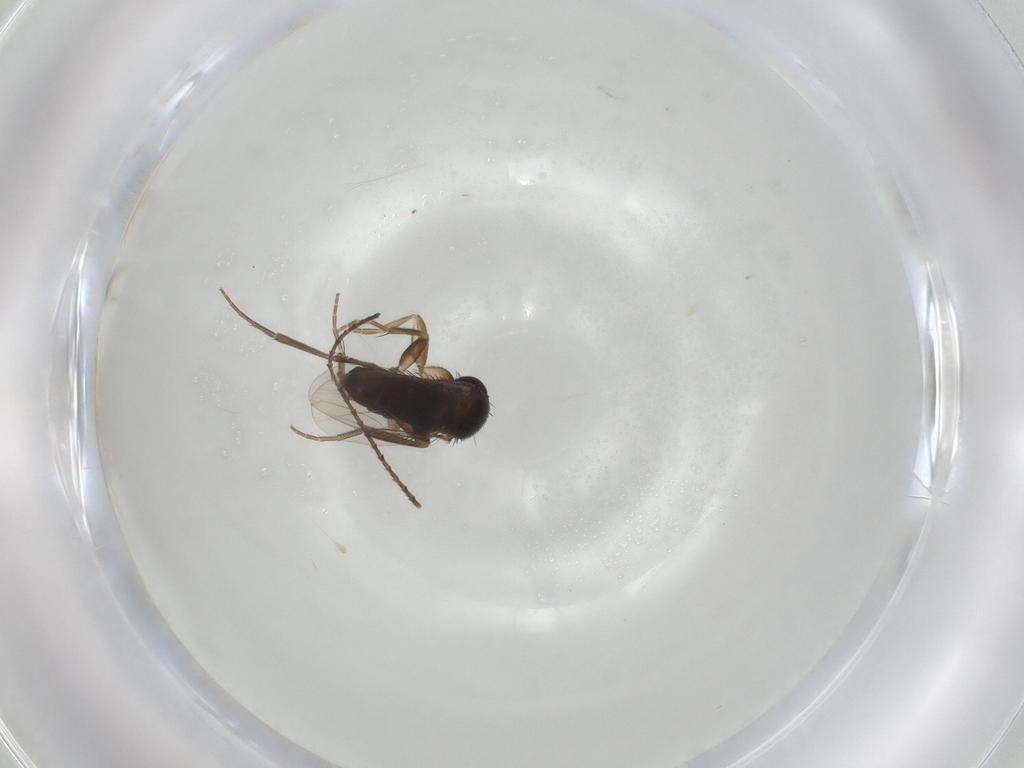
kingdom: Animalia
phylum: Arthropoda
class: Insecta
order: Diptera
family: Phoridae
